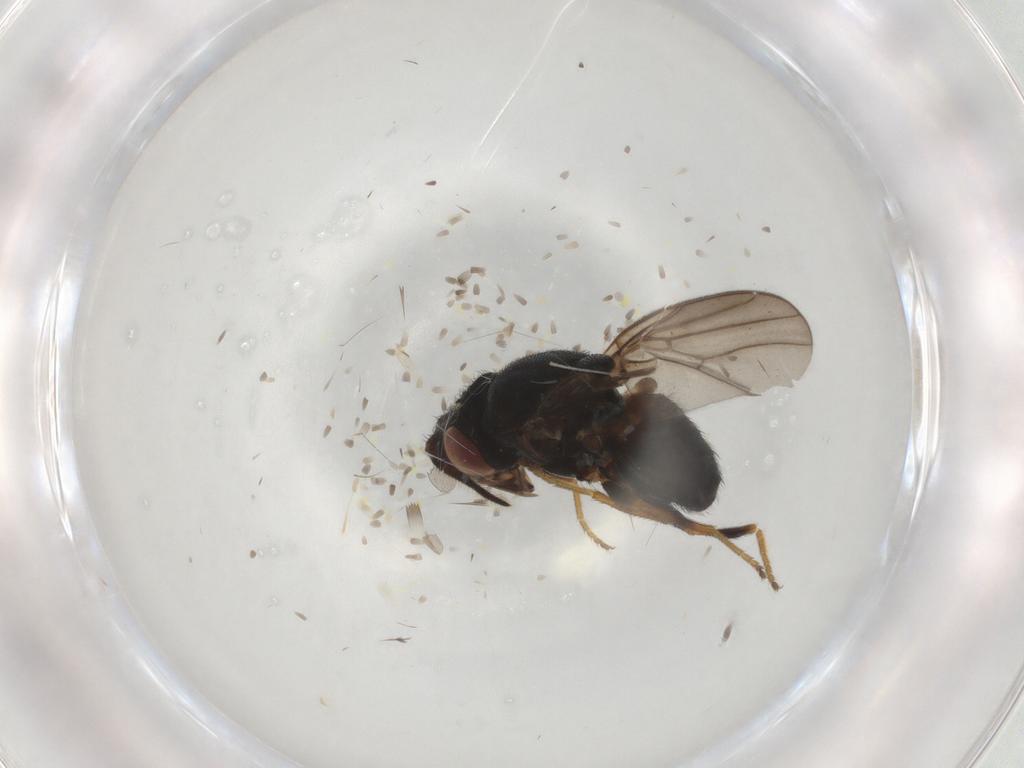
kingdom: Animalia
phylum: Arthropoda
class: Insecta
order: Diptera
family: Chloropidae
